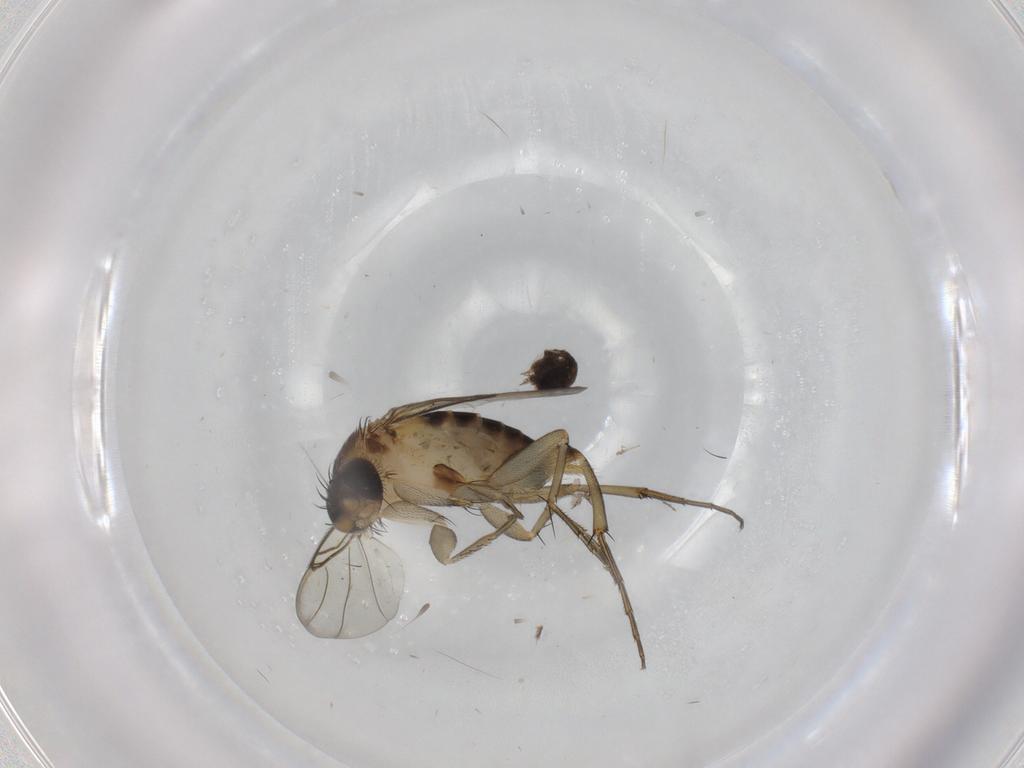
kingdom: Animalia
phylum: Arthropoda
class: Insecta
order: Diptera
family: Phoridae
